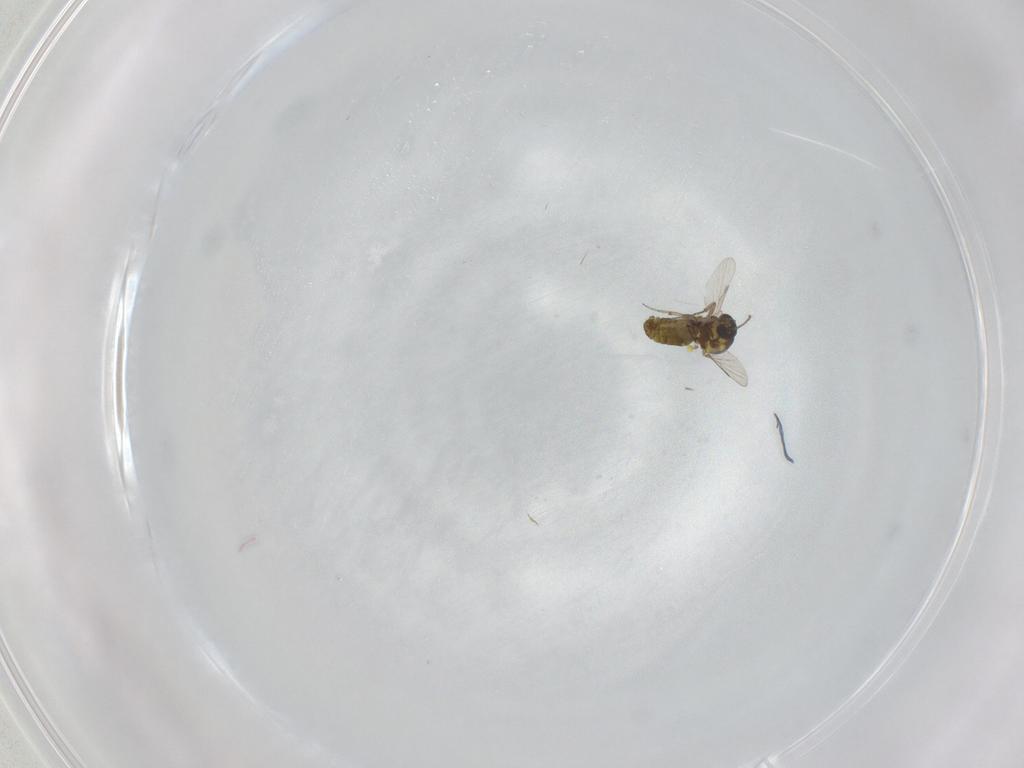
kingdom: Animalia
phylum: Arthropoda
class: Insecta
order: Diptera
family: Ceratopogonidae
